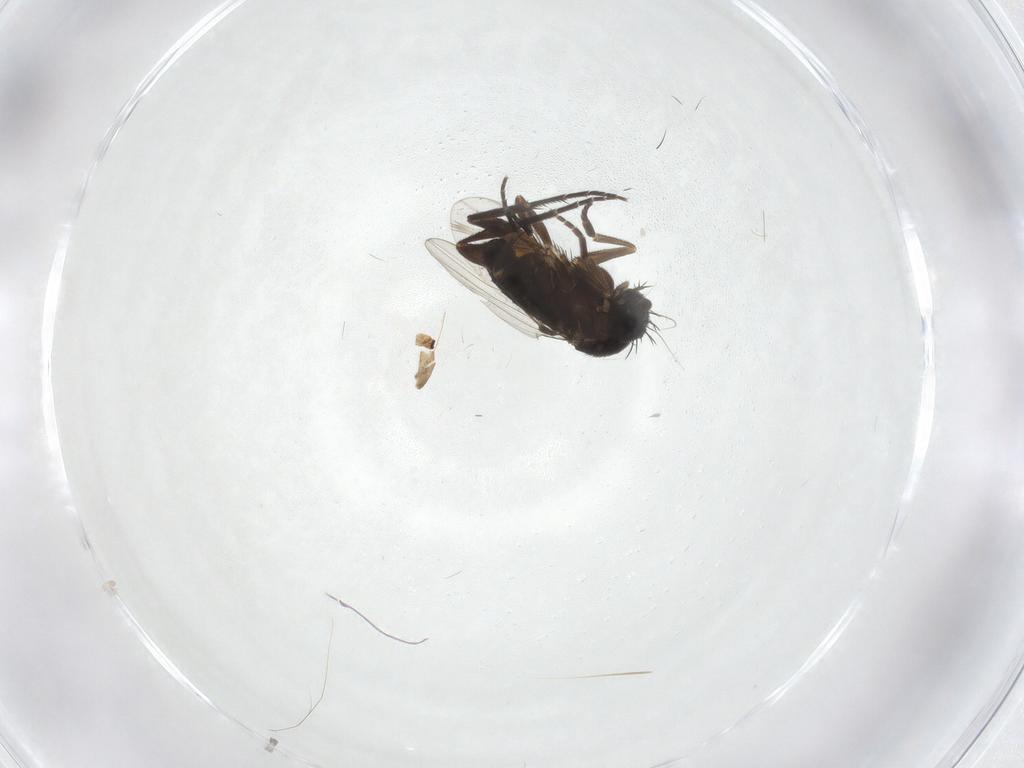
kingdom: Animalia
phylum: Arthropoda
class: Insecta
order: Diptera
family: Phoridae
